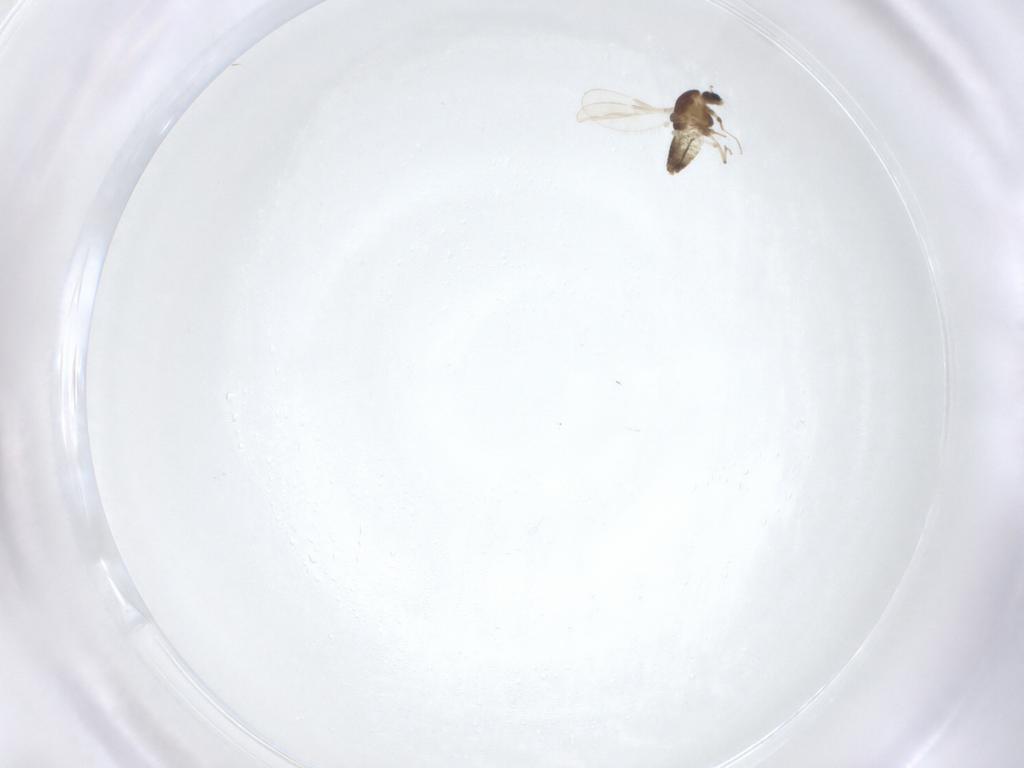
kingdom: Animalia
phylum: Arthropoda
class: Insecta
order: Diptera
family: Chironomidae
